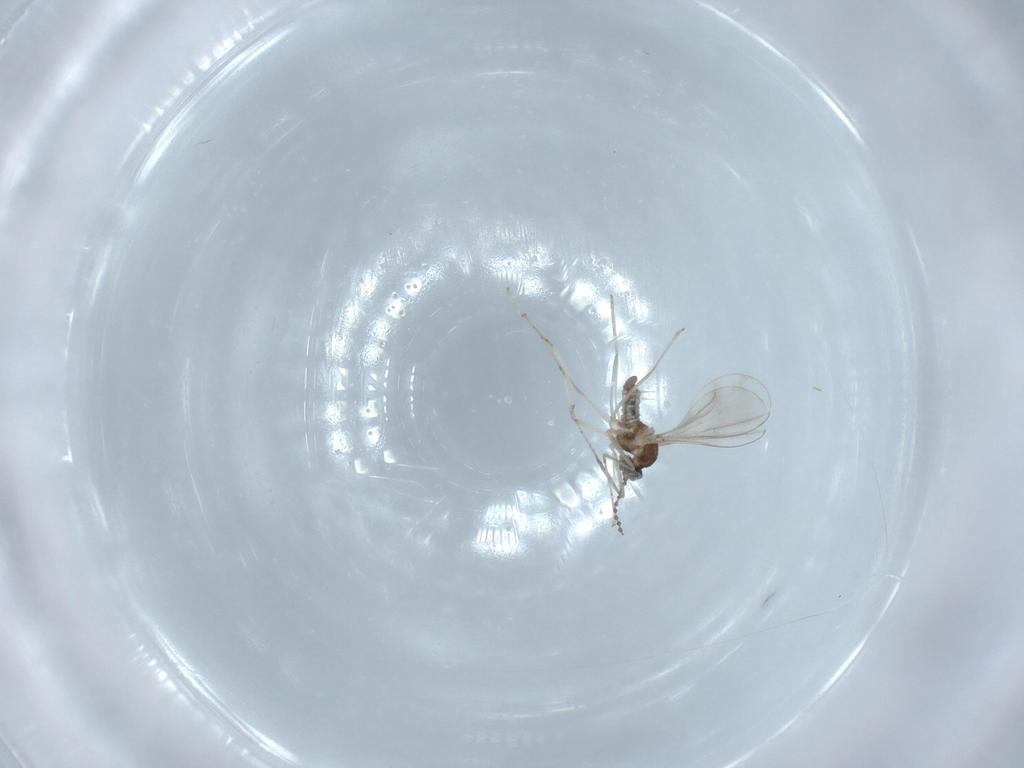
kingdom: Animalia
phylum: Arthropoda
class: Insecta
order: Diptera
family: Cecidomyiidae
